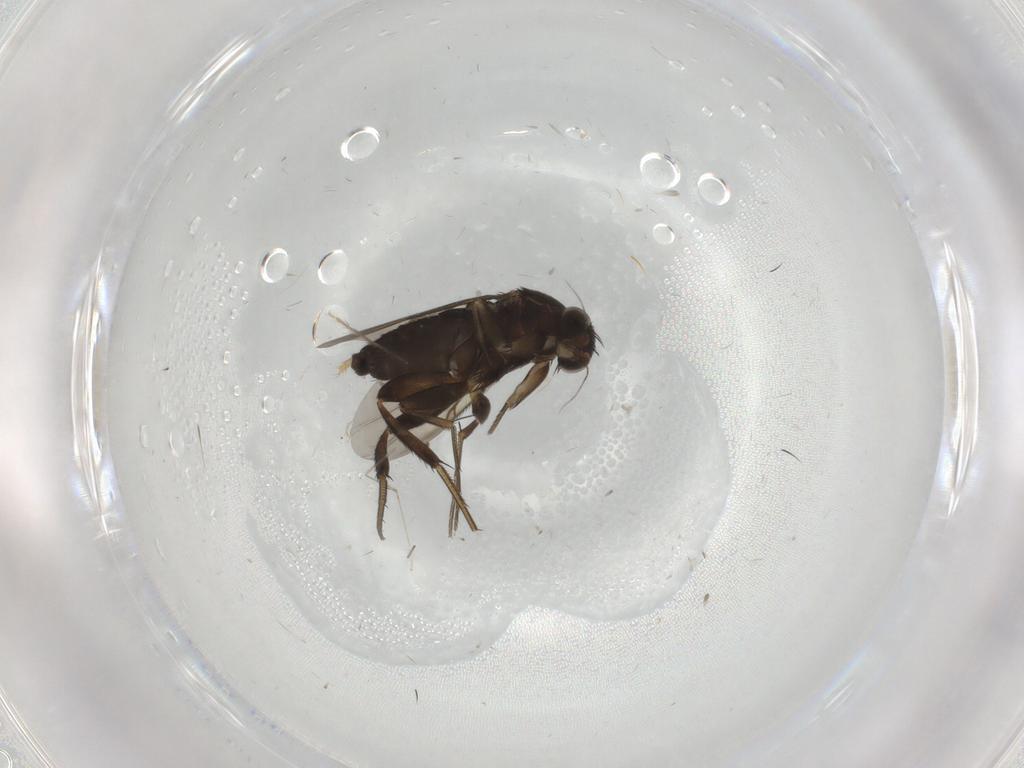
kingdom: Animalia
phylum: Arthropoda
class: Insecta
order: Diptera
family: Phoridae
